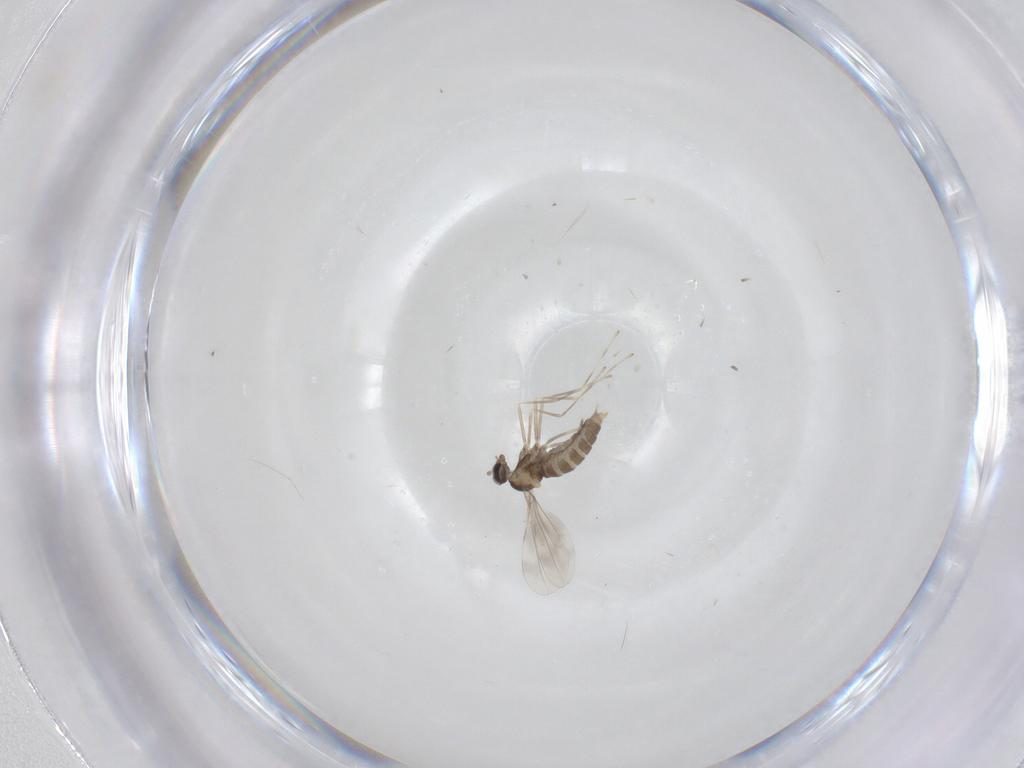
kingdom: Animalia
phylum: Arthropoda
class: Insecta
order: Diptera
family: Cecidomyiidae
